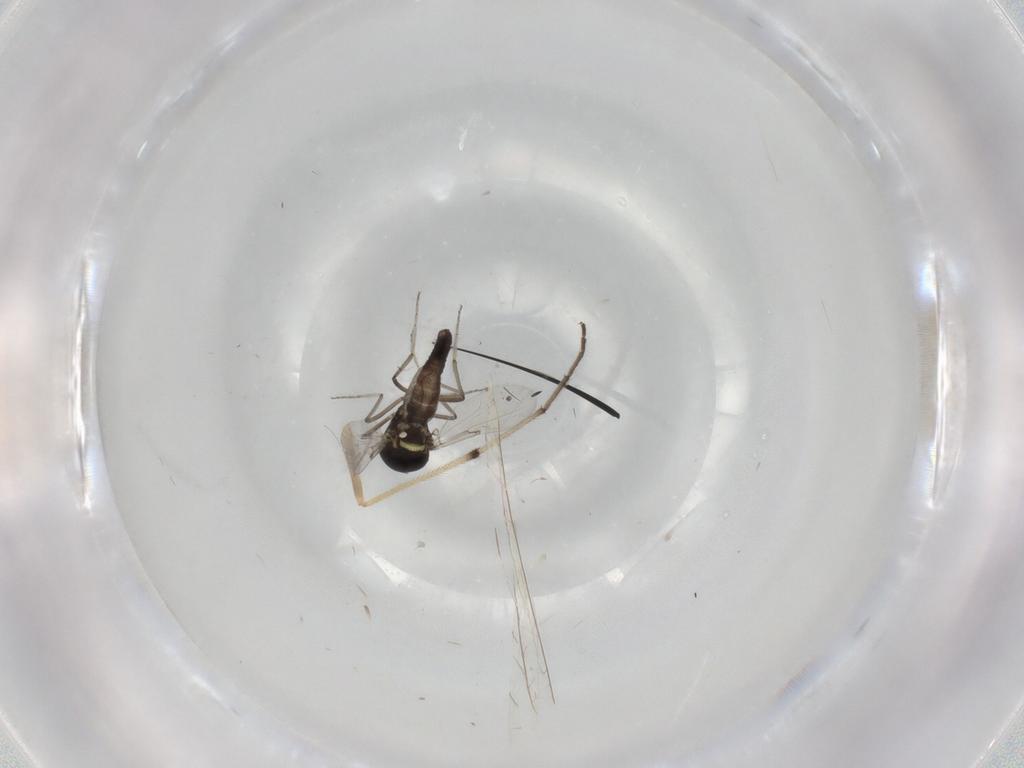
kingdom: Animalia
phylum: Arthropoda
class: Insecta
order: Diptera
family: Ceratopogonidae
